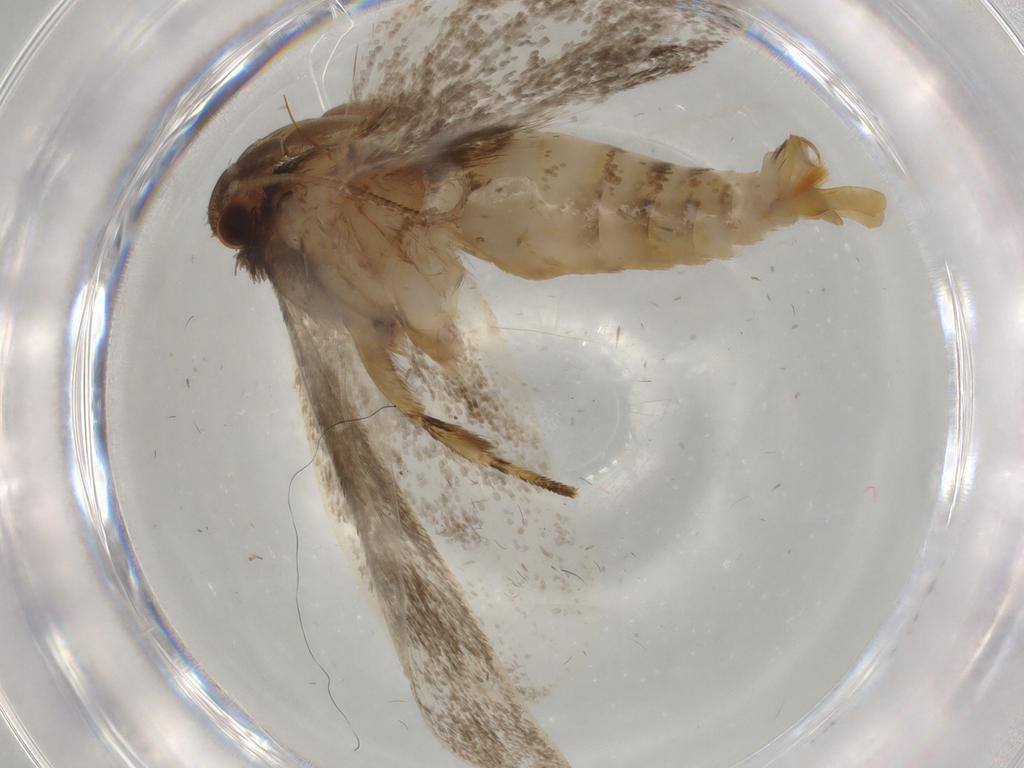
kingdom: Animalia
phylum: Arthropoda
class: Insecta
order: Lepidoptera
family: Tineidae
